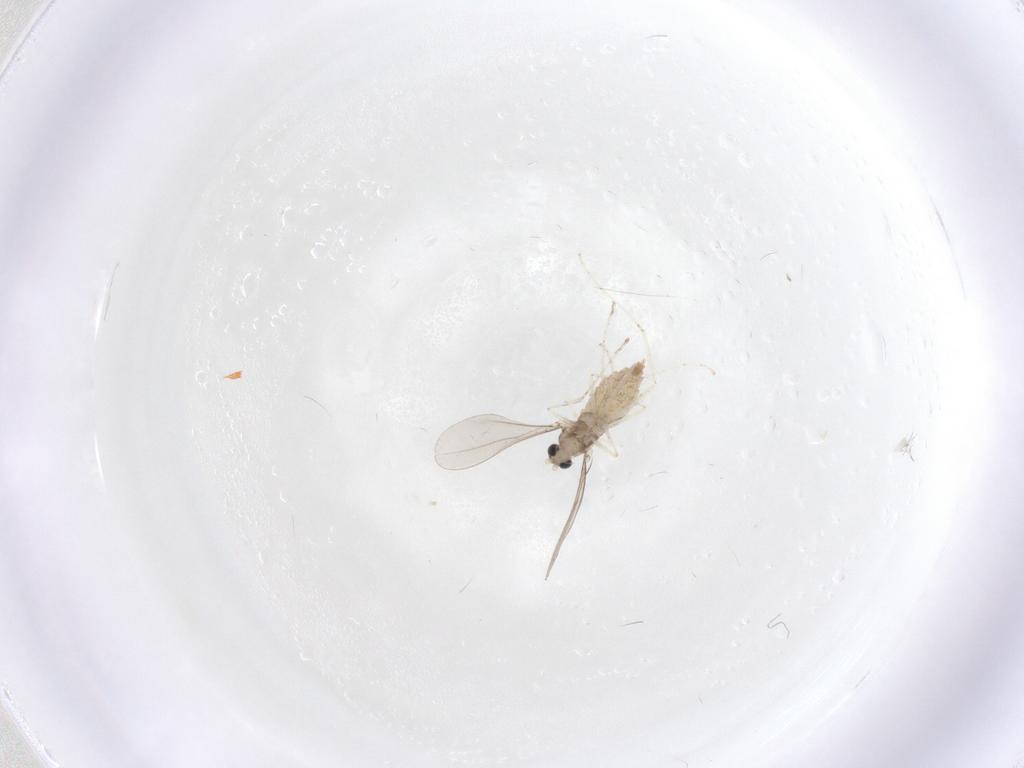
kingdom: Animalia
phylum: Arthropoda
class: Insecta
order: Diptera
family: Cecidomyiidae
